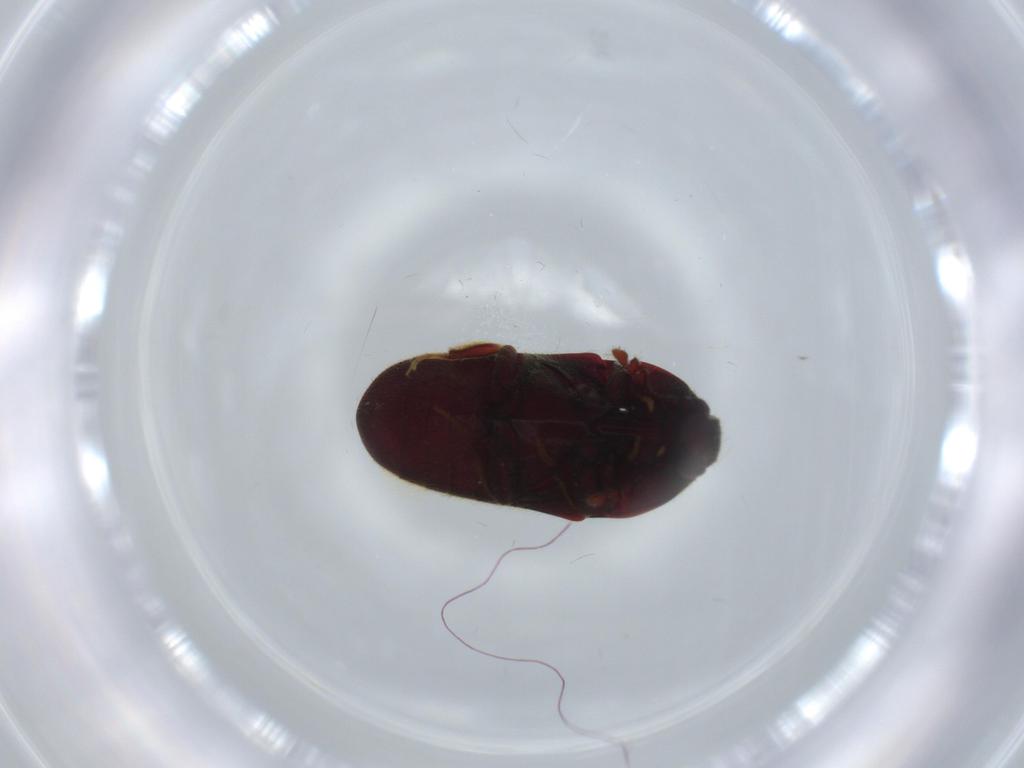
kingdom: Animalia
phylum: Arthropoda
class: Insecta
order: Coleoptera
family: Throscidae
